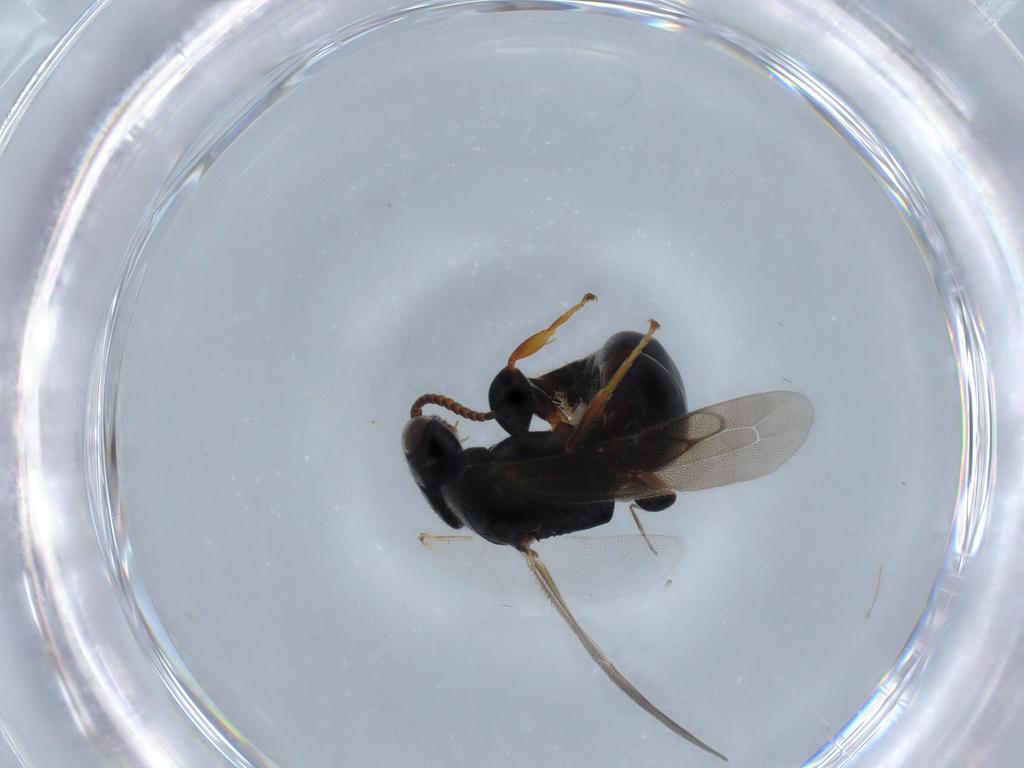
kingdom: Animalia
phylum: Arthropoda
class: Insecta
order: Hymenoptera
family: Bethylidae
